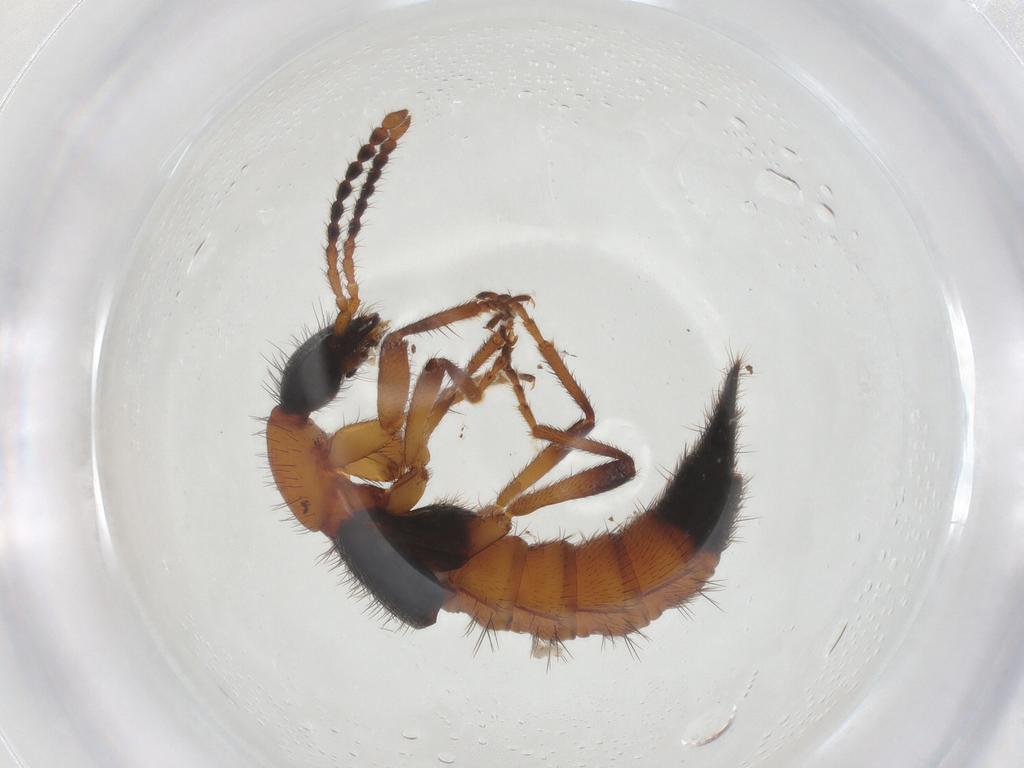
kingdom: Animalia
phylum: Arthropoda
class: Insecta
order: Coleoptera
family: Staphylinidae
